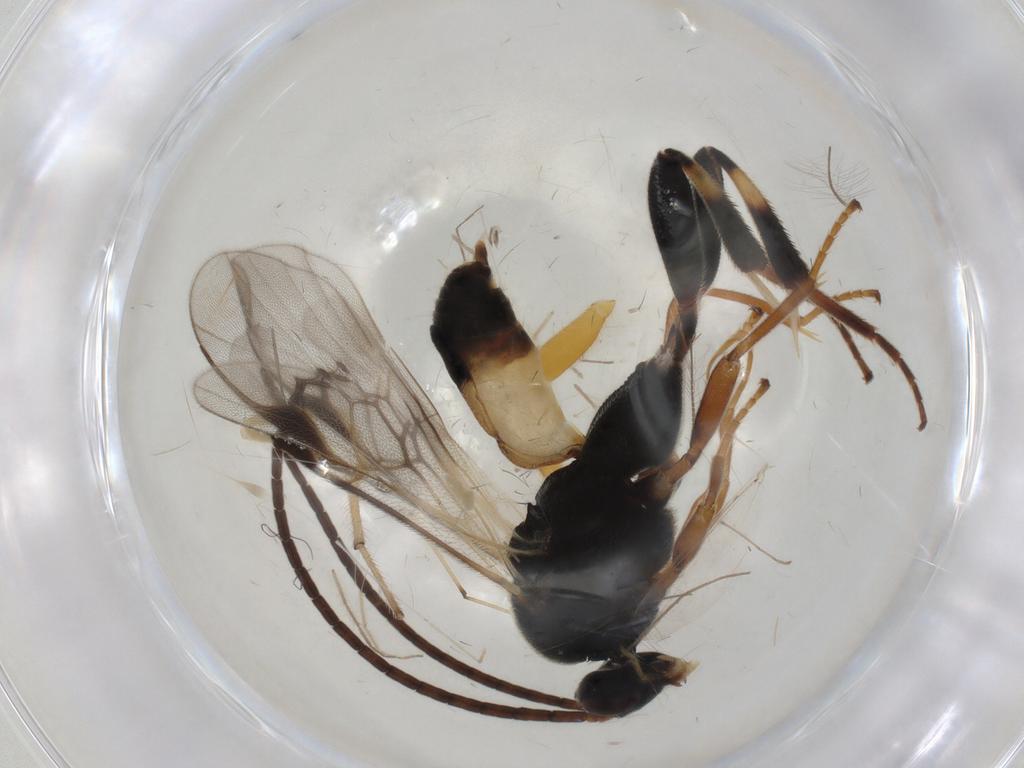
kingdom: Animalia
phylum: Arthropoda
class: Insecta
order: Hymenoptera
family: Braconidae
